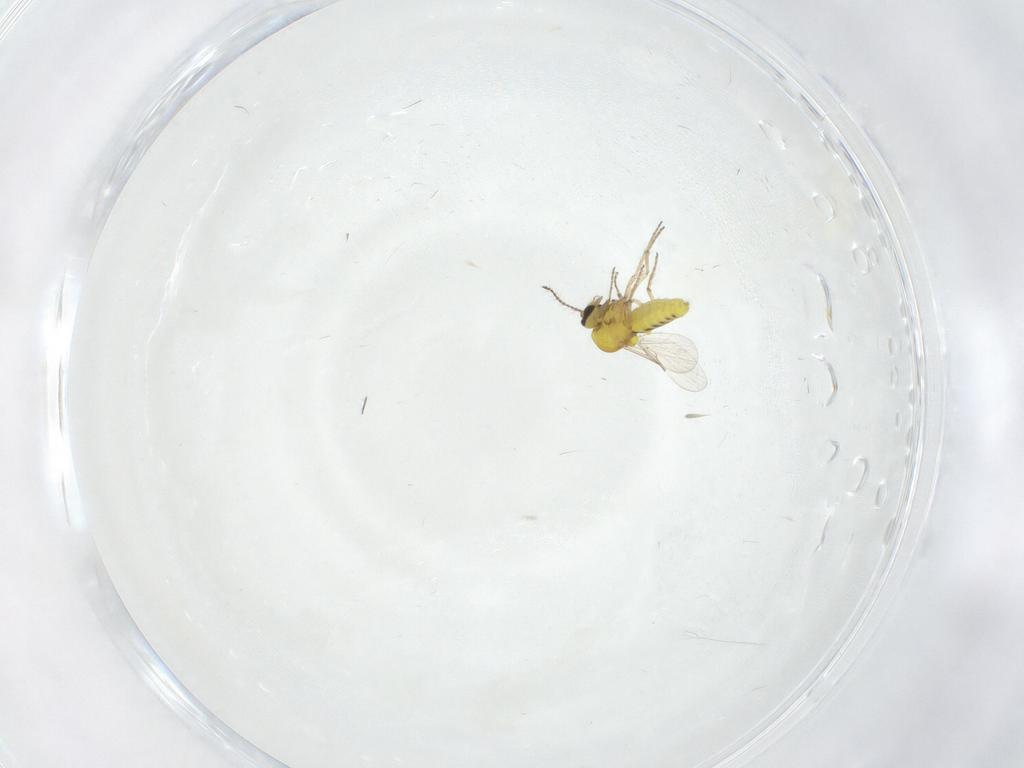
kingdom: Animalia
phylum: Arthropoda
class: Insecta
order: Diptera
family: Ceratopogonidae
